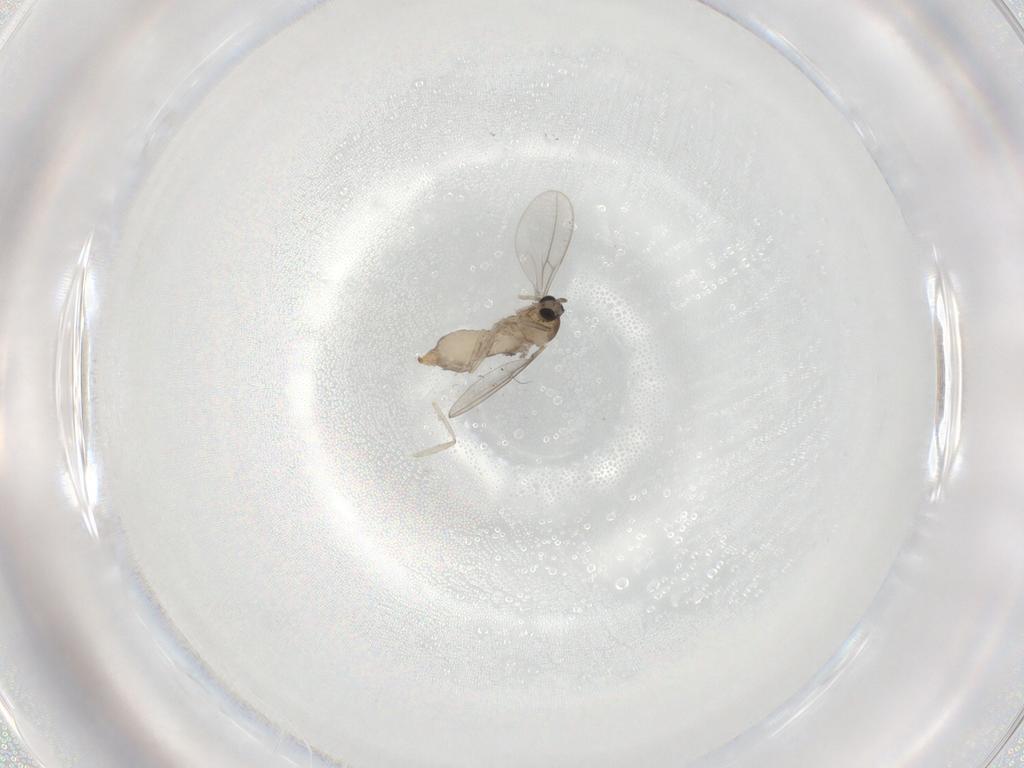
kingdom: Animalia
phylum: Arthropoda
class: Insecta
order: Diptera
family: Cecidomyiidae
